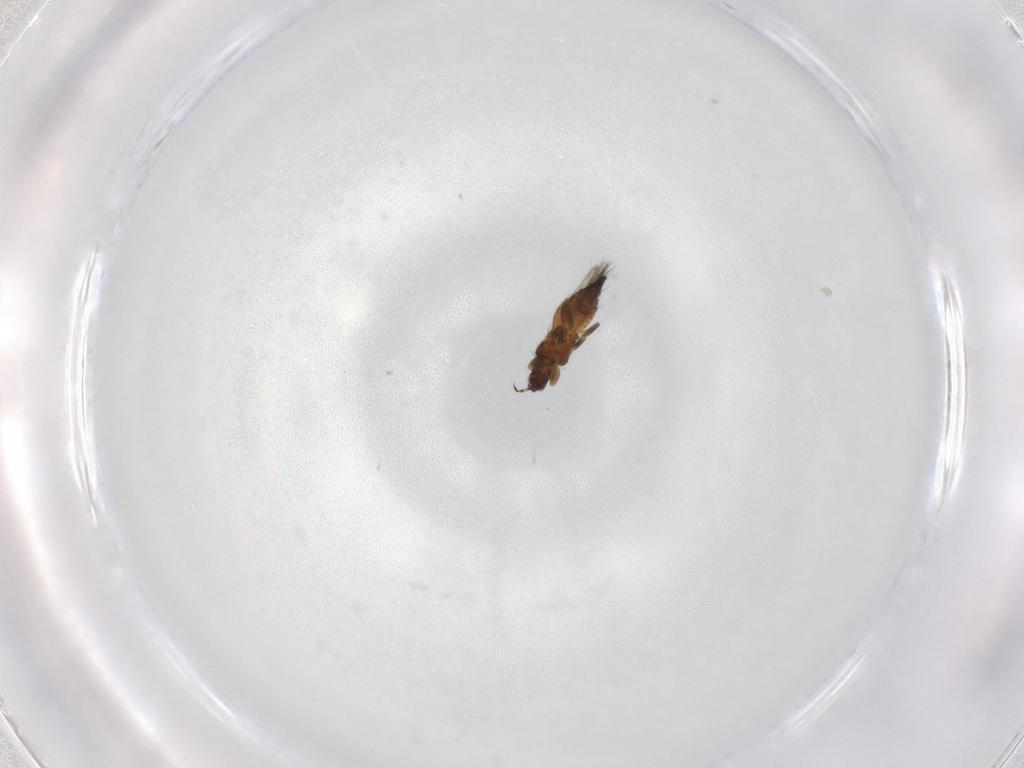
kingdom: Animalia
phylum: Arthropoda
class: Insecta
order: Thysanoptera
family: Thripidae
